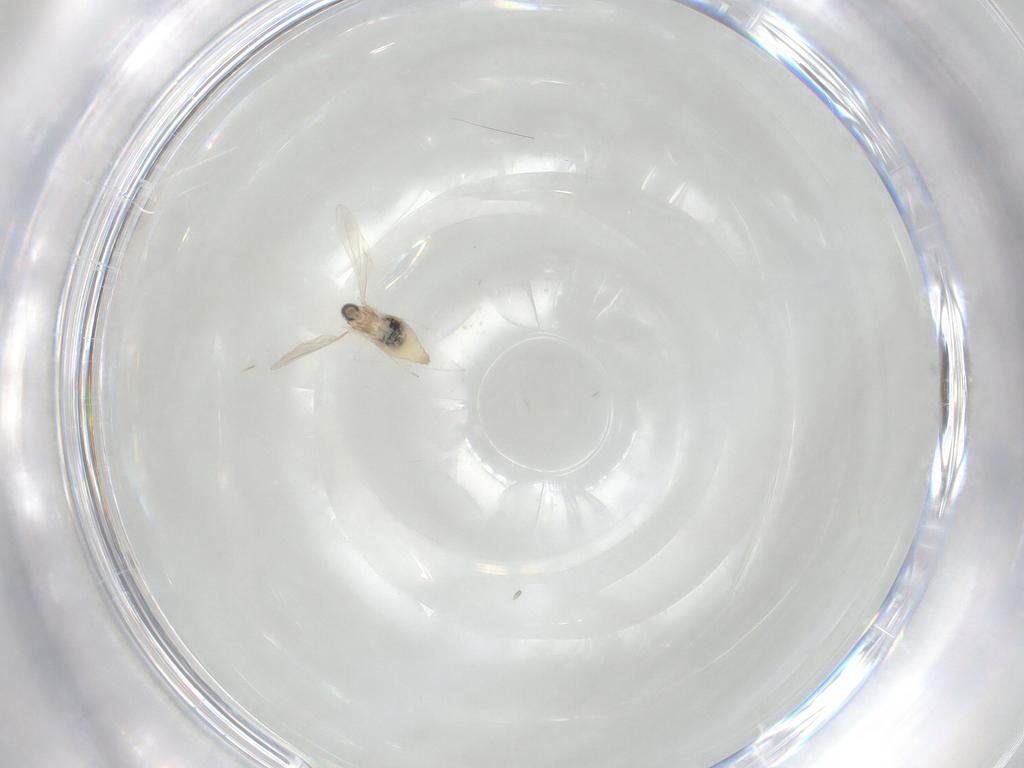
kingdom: Animalia
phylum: Arthropoda
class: Insecta
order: Diptera
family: Cecidomyiidae
